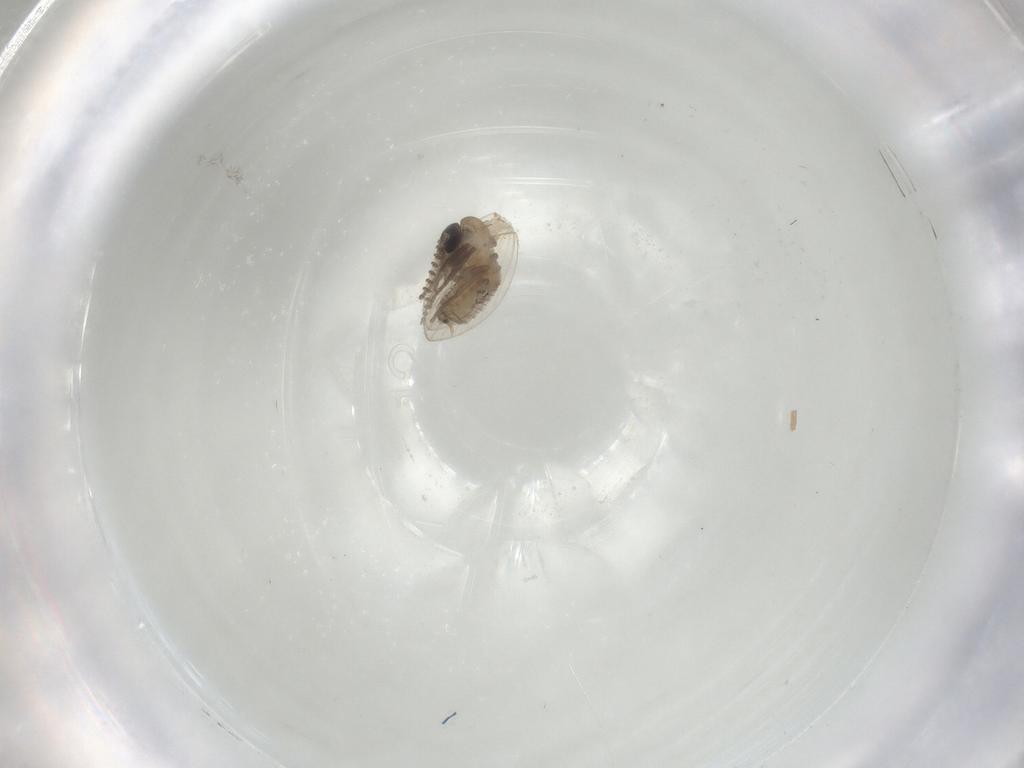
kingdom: Animalia
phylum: Arthropoda
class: Insecta
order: Diptera
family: Psychodidae
